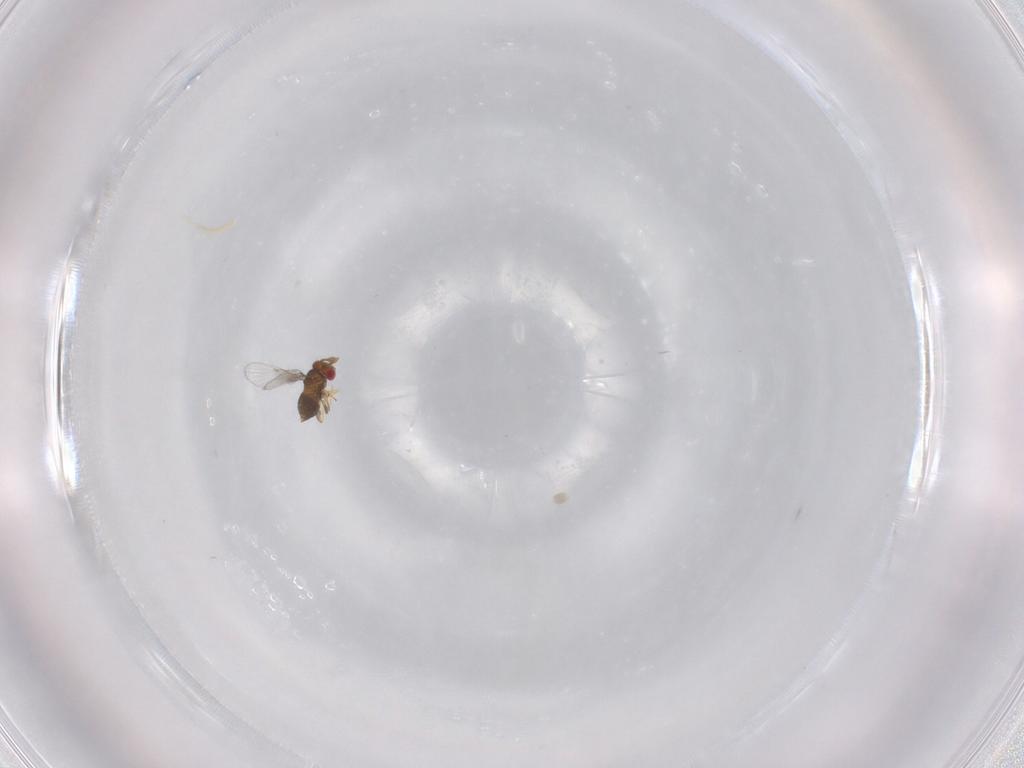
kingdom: Animalia
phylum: Arthropoda
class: Insecta
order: Hymenoptera
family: Trichogrammatidae
